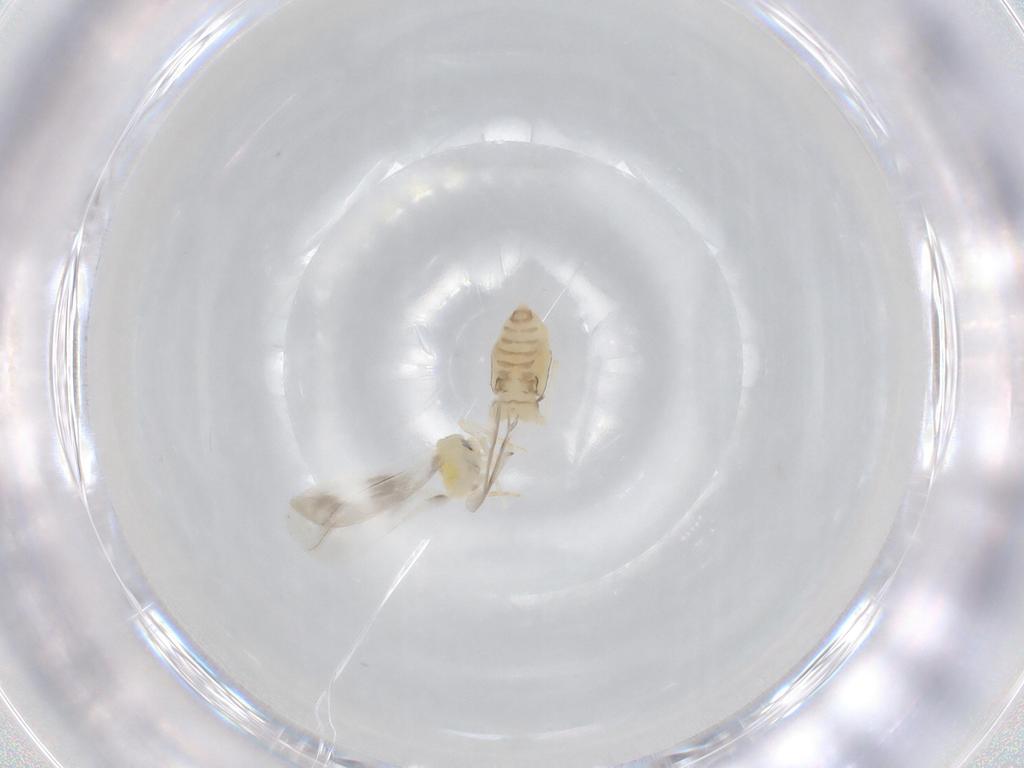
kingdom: Animalia
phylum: Arthropoda
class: Insecta
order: Hemiptera
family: Aleyrodidae
